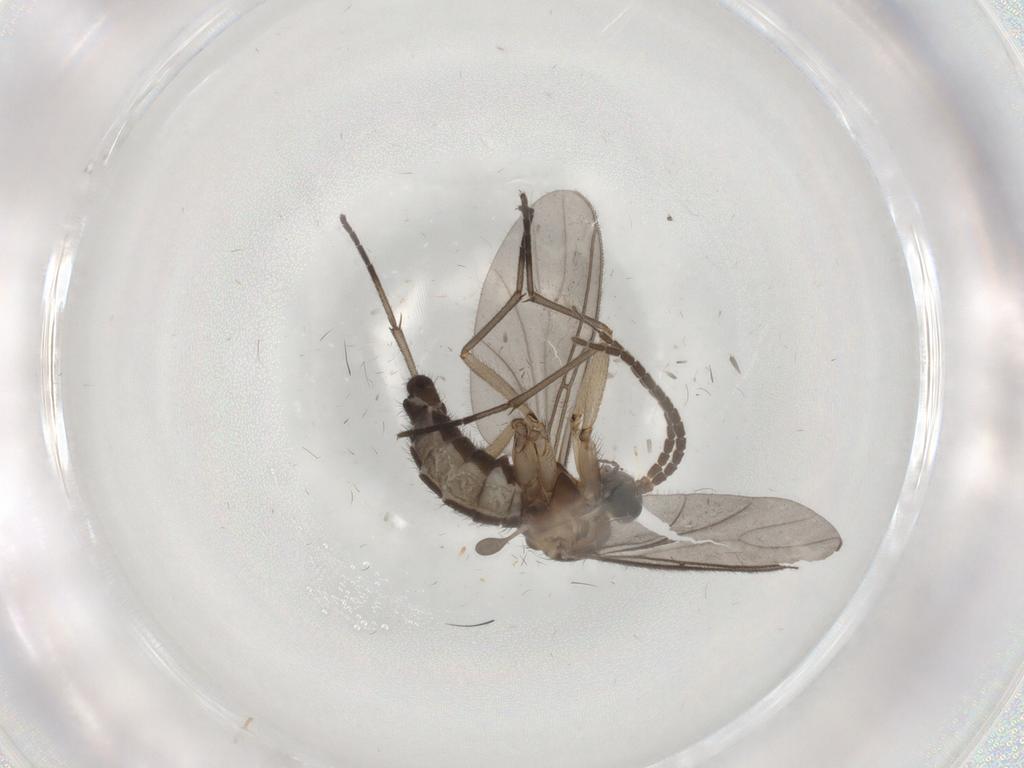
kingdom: Animalia
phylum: Arthropoda
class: Insecta
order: Diptera
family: Sciaridae
